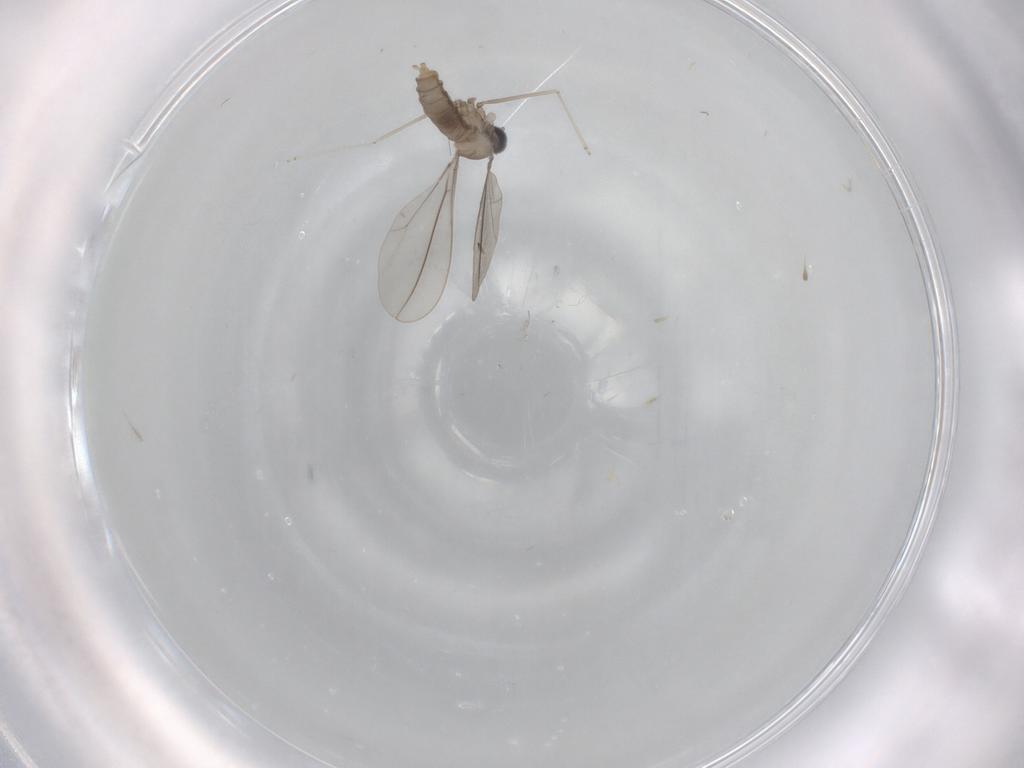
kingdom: Animalia
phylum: Arthropoda
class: Insecta
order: Diptera
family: Cecidomyiidae
